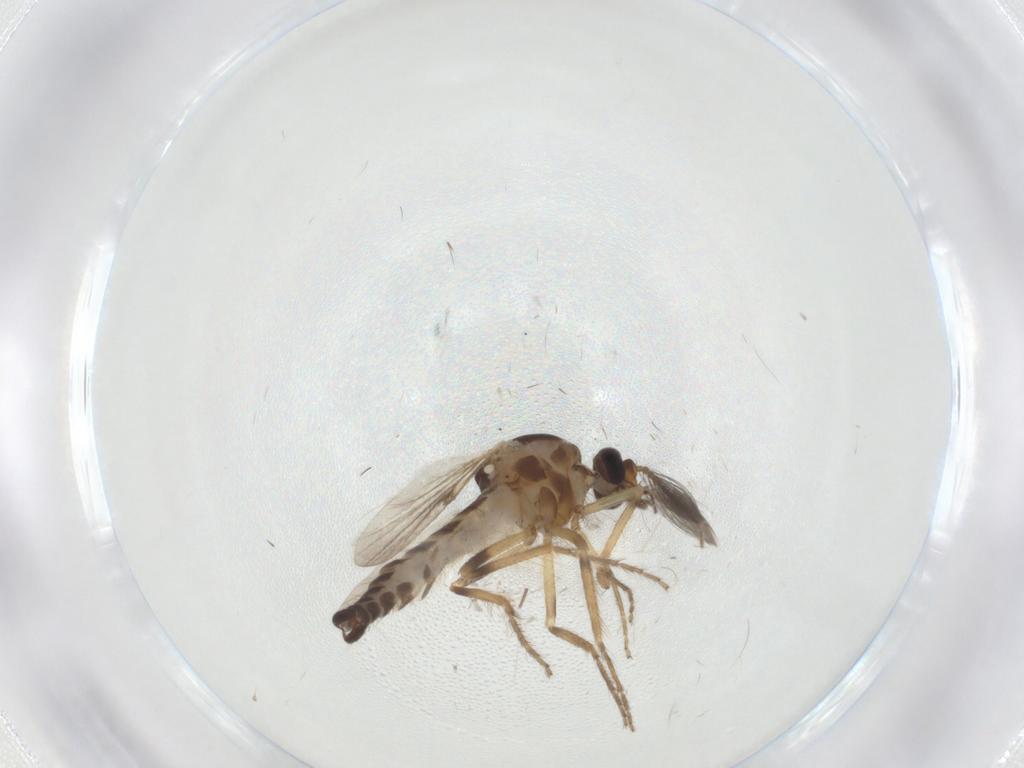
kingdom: Animalia
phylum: Arthropoda
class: Insecta
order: Diptera
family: Ceratopogonidae
